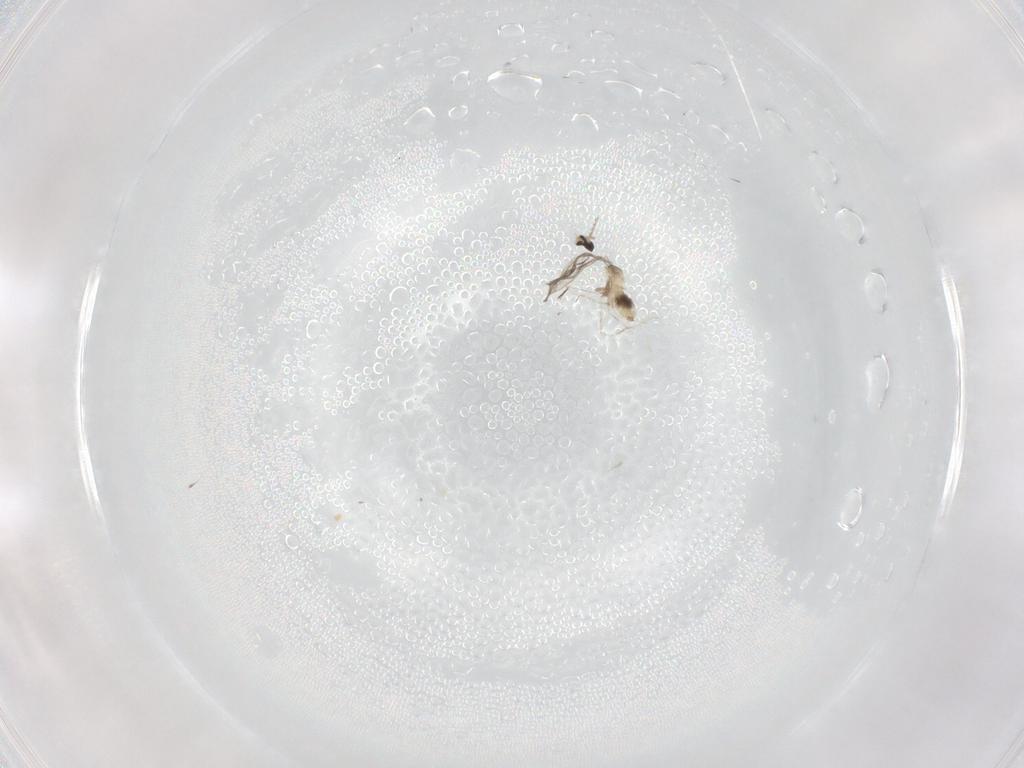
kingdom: Animalia
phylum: Arthropoda
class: Insecta
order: Diptera
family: Cecidomyiidae
